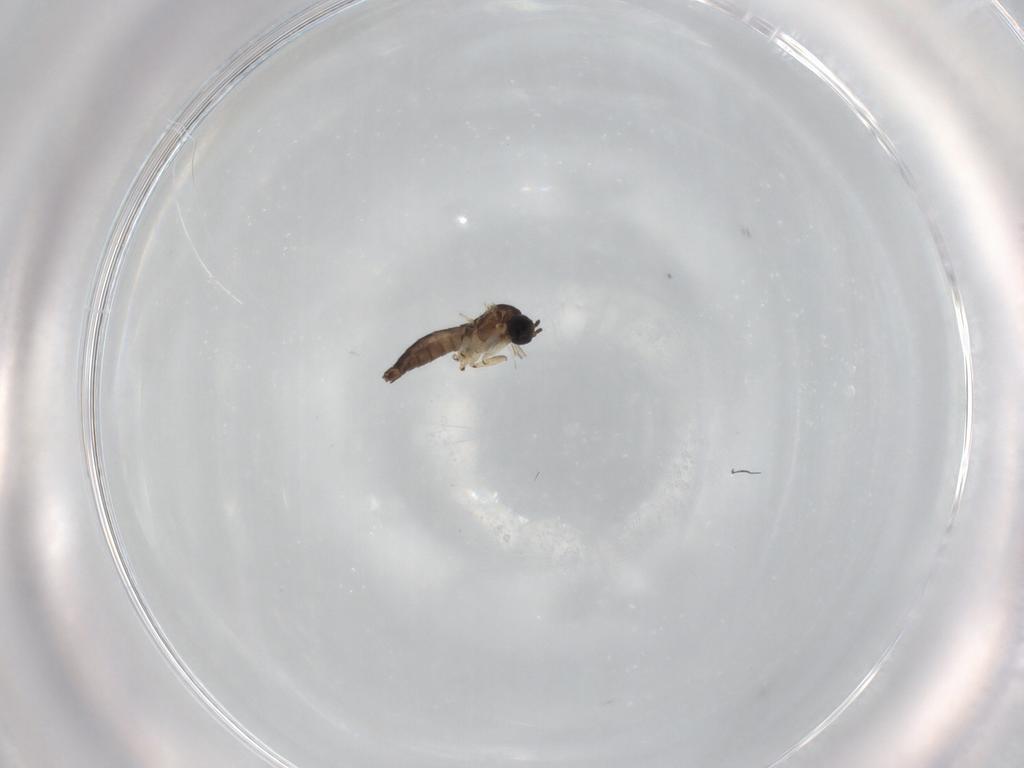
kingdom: Animalia
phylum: Arthropoda
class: Insecta
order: Diptera
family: Sciaridae
